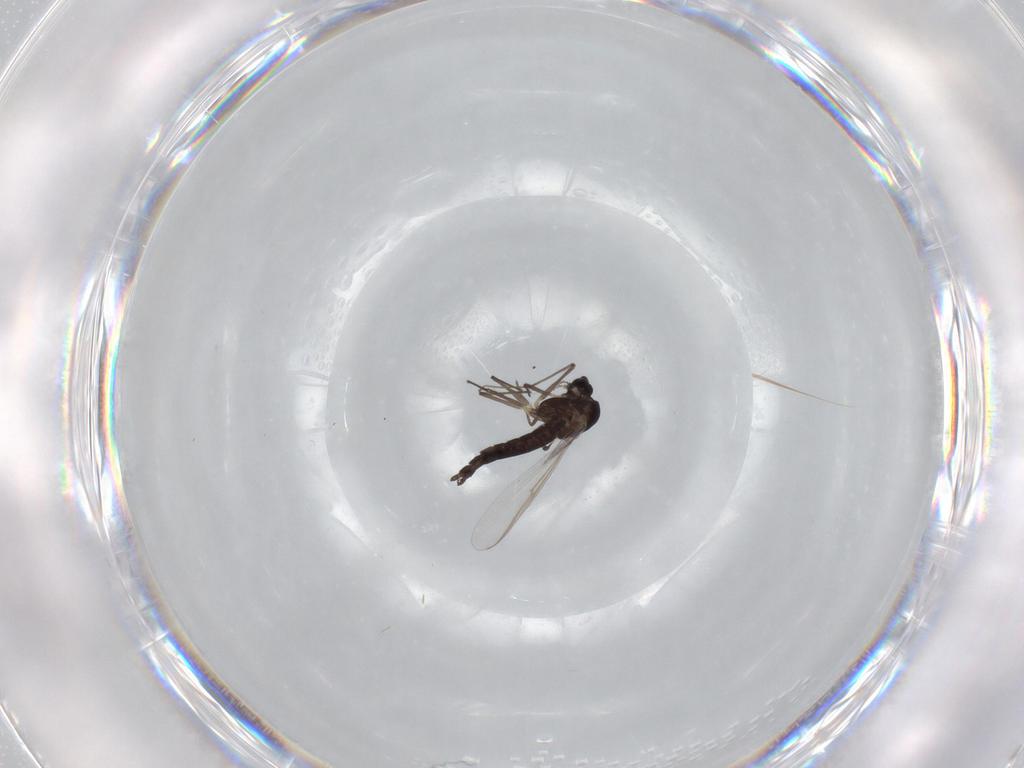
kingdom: Animalia
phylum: Arthropoda
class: Insecta
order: Diptera
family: Chironomidae
